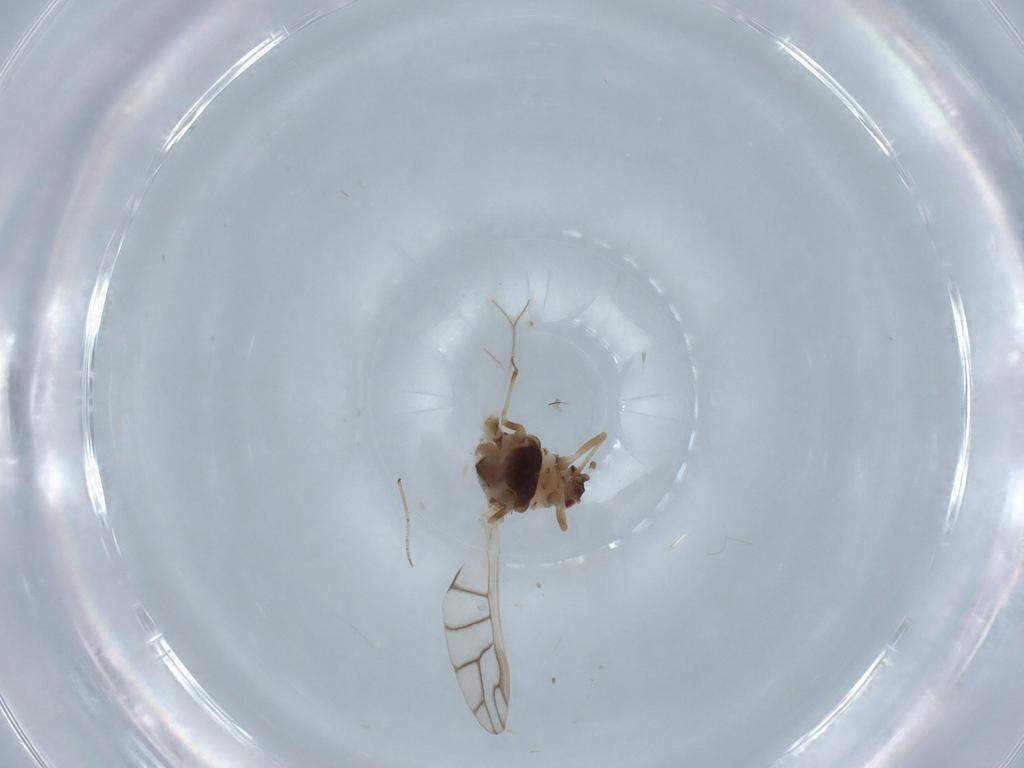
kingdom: Animalia
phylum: Arthropoda
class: Insecta
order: Hemiptera
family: Aphididae
